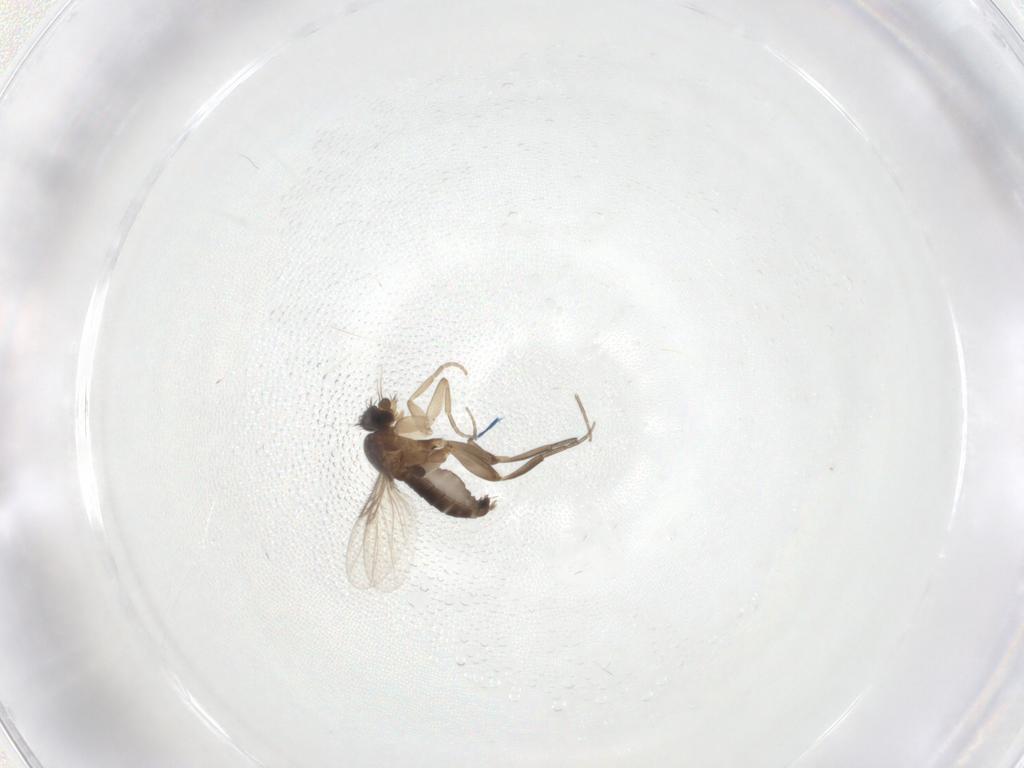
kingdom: Animalia
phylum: Arthropoda
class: Insecta
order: Diptera
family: Phoridae
